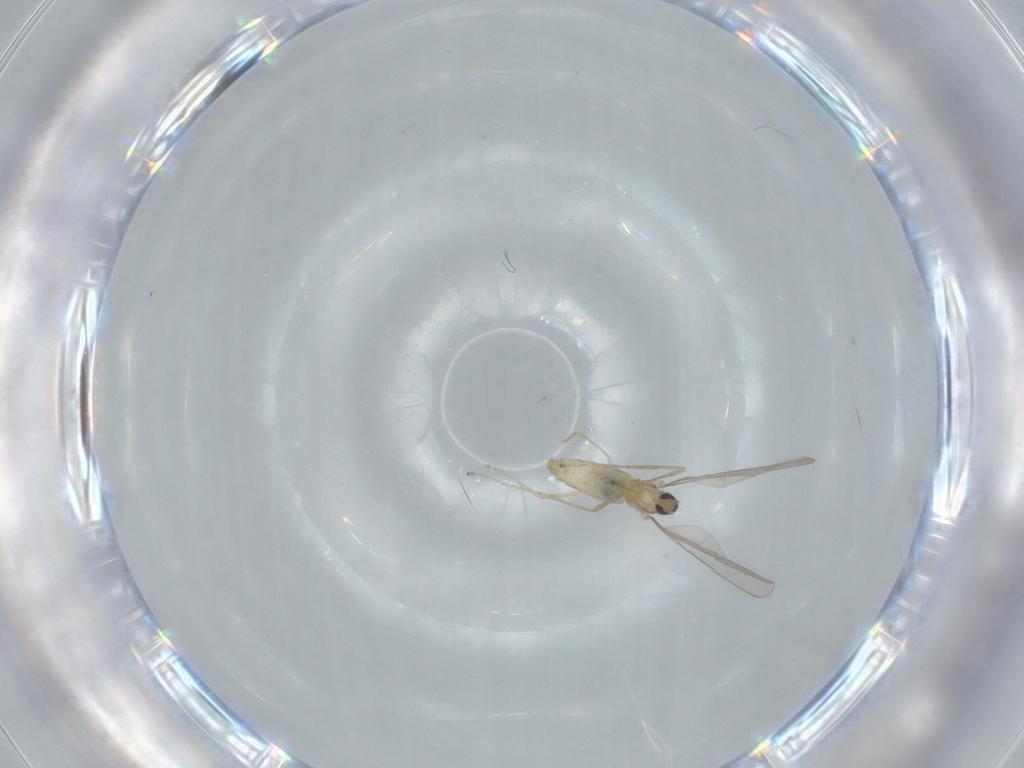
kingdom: Animalia
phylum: Arthropoda
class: Insecta
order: Diptera
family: Cecidomyiidae
